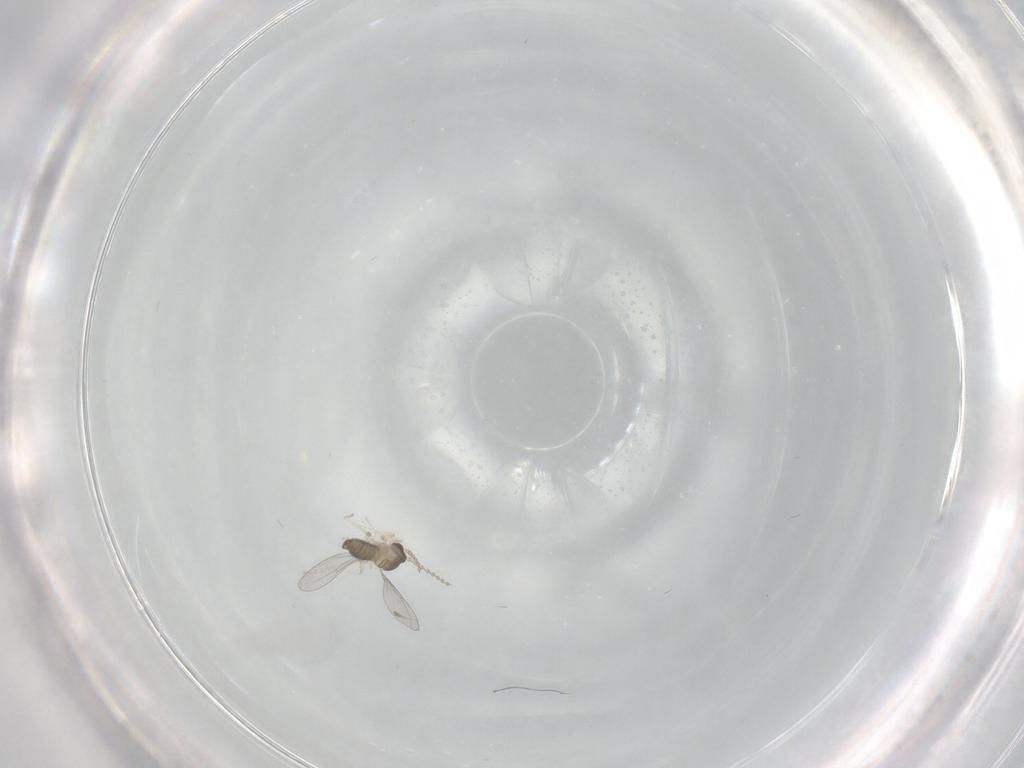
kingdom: Animalia
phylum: Arthropoda
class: Insecta
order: Diptera
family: Cecidomyiidae
